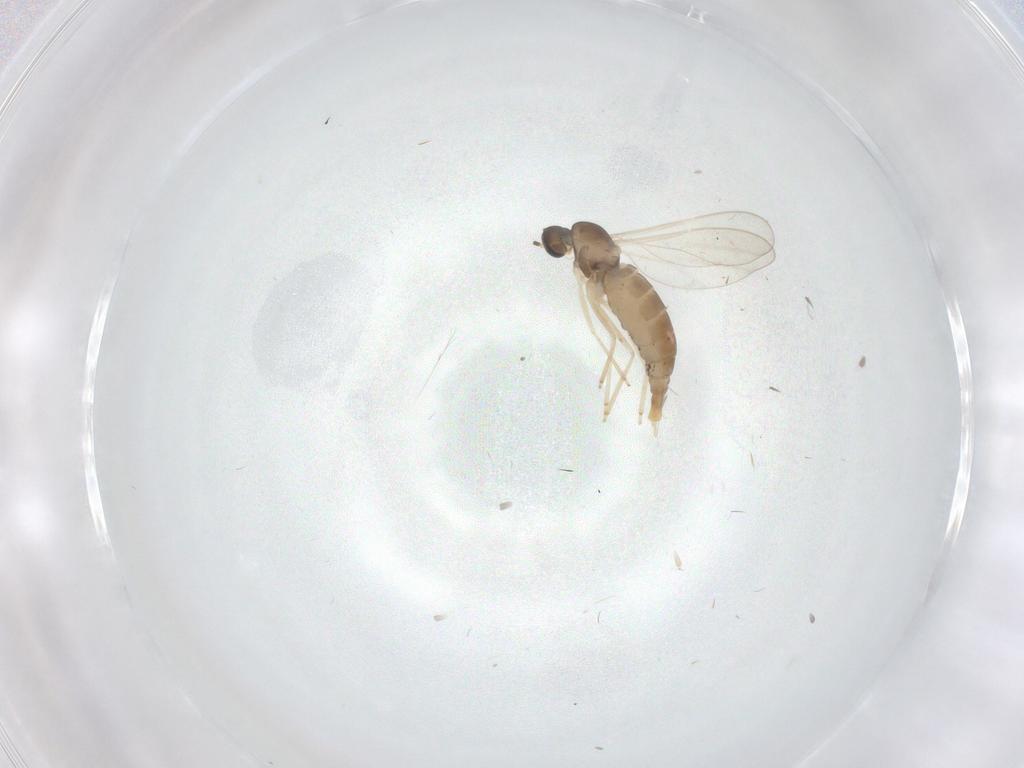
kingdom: Animalia
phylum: Arthropoda
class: Insecta
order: Diptera
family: Cecidomyiidae
